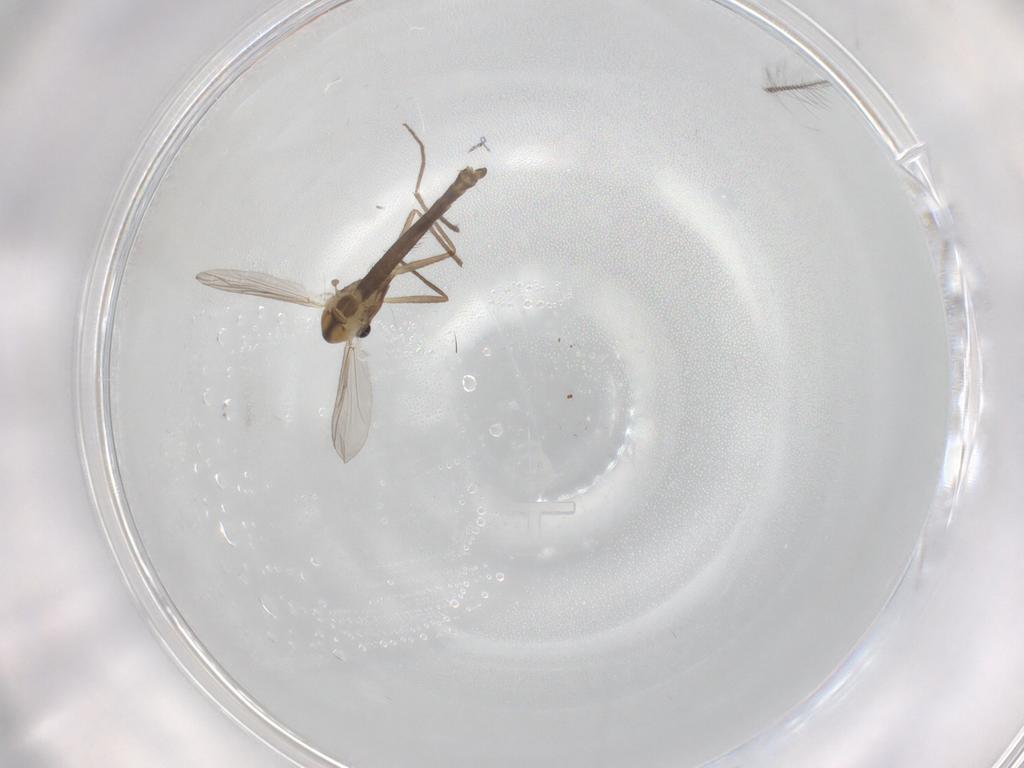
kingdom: Animalia
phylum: Arthropoda
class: Insecta
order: Diptera
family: Chironomidae
